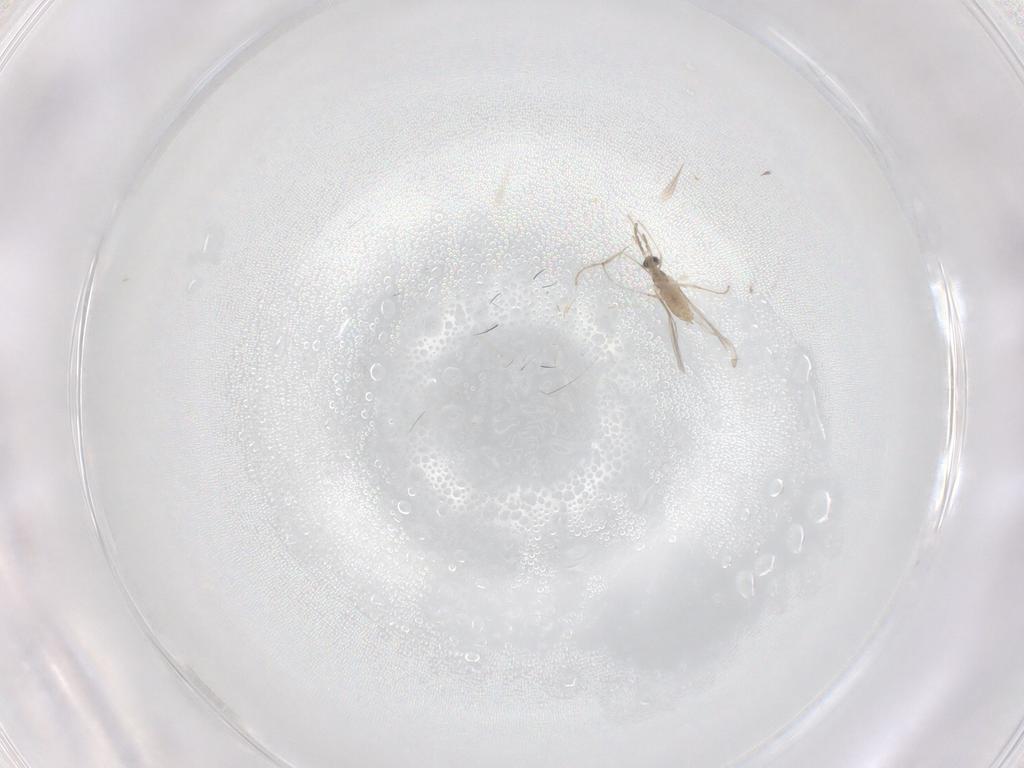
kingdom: Animalia
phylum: Arthropoda
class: Insecta
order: Diptera
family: Cecidomyiidae
